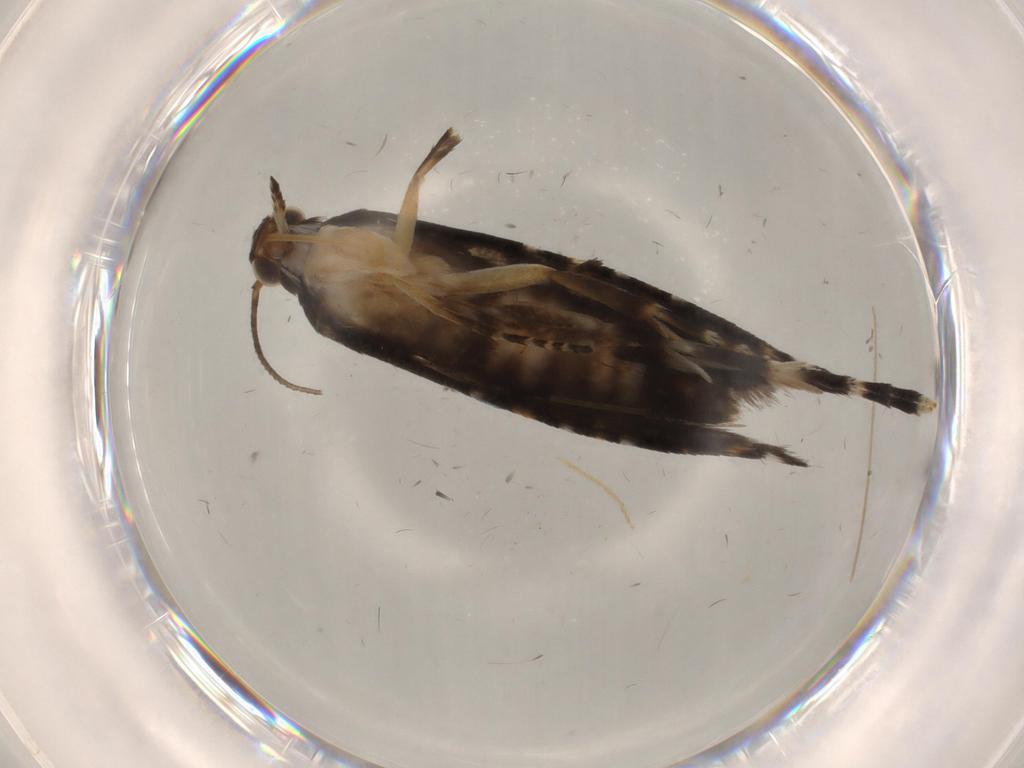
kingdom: Animalia
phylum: Arthropoda
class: Insecta
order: Lepidoptera
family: Glyphipterigidae
